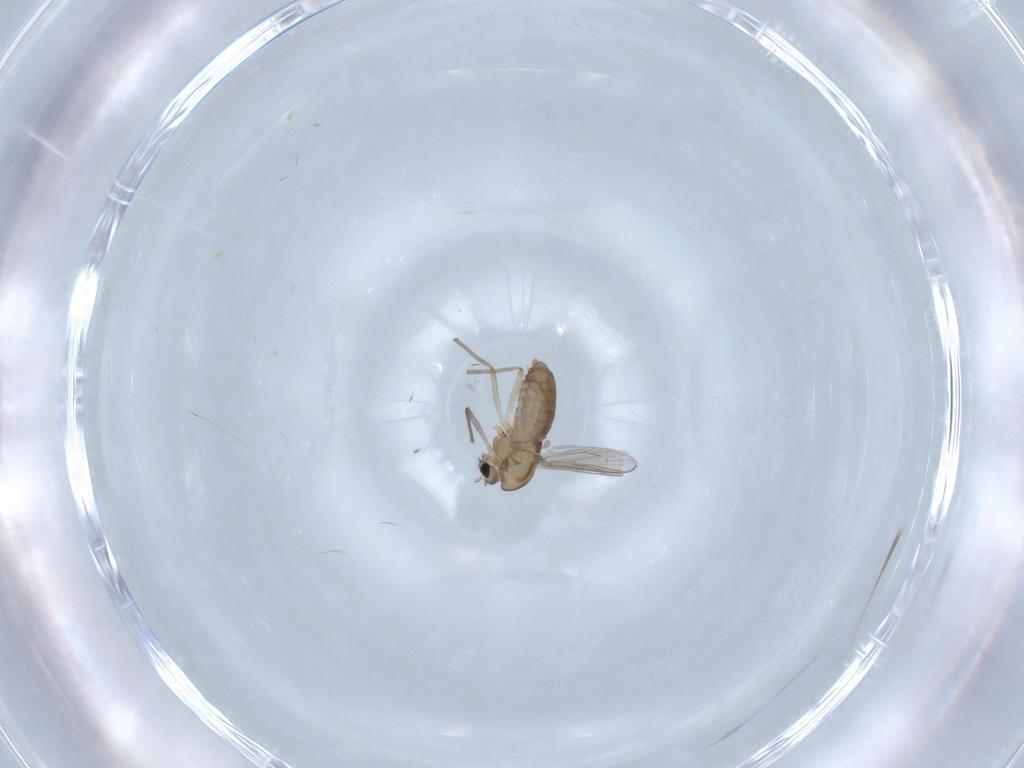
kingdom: Animalia
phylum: Arthropoda
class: Insecta
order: Diptera
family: Chironomidae
